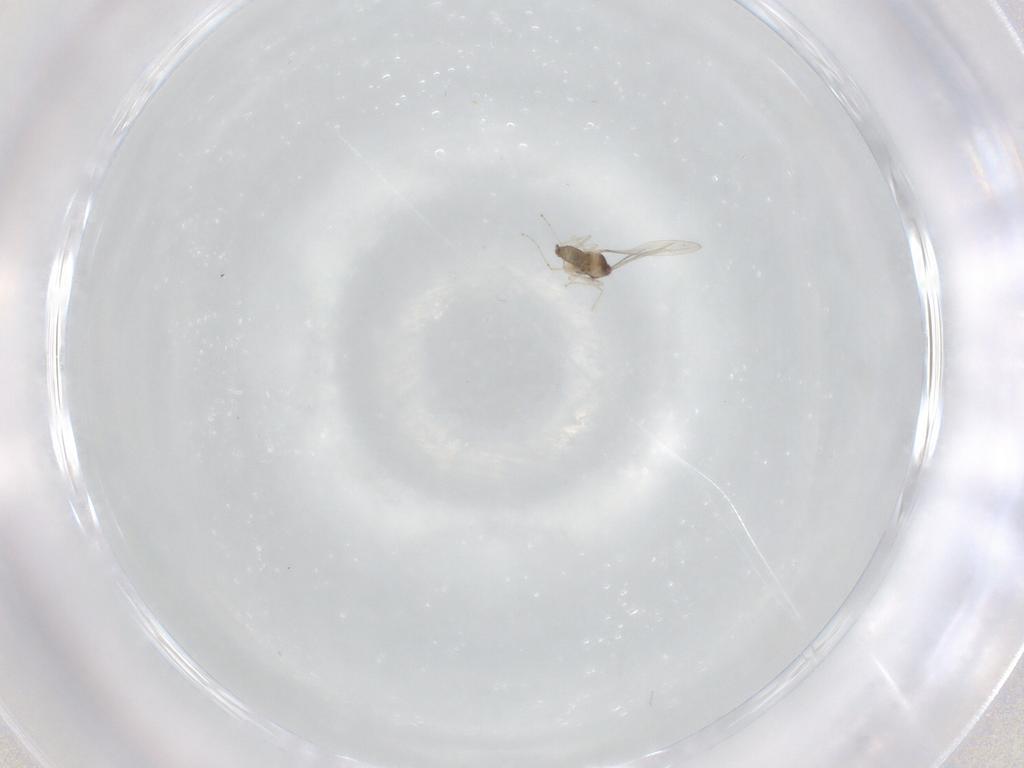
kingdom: Animalia
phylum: Arthropoda
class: Insecta
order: Diptera
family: Cecidomyiidae
